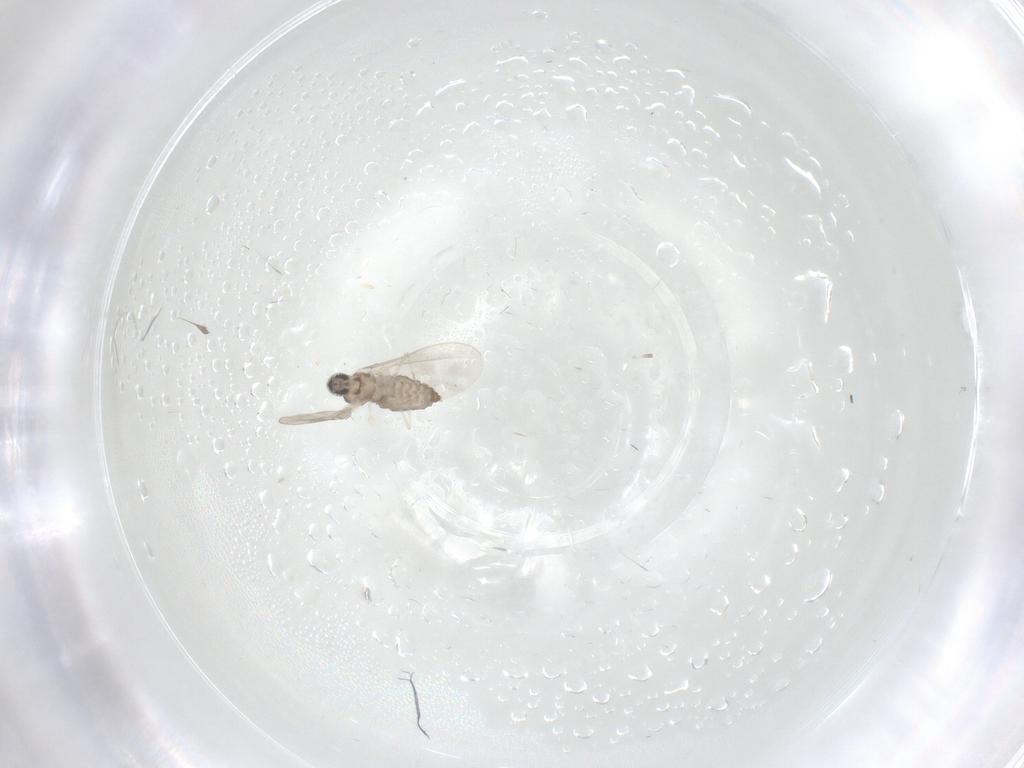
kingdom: Animalia
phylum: Arthropoda
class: Insecta
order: Diptera
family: Cecidomyiidae
